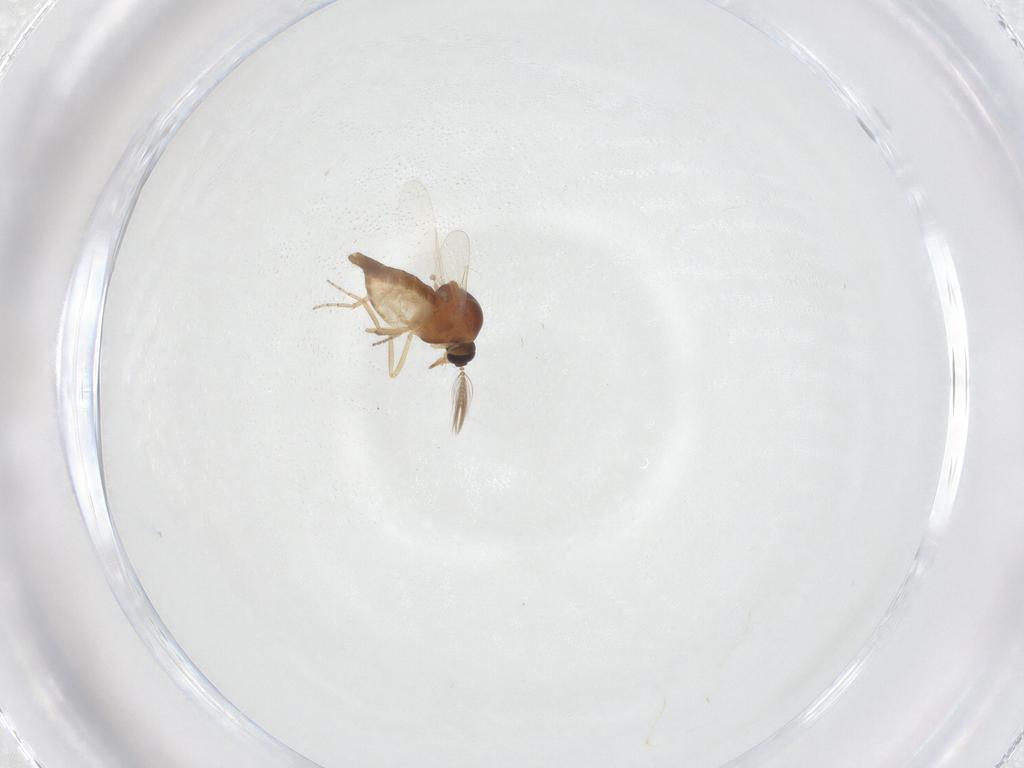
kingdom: Animalia
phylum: Arthropoda
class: Insecta
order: Diptera
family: Ceratopogonidae
